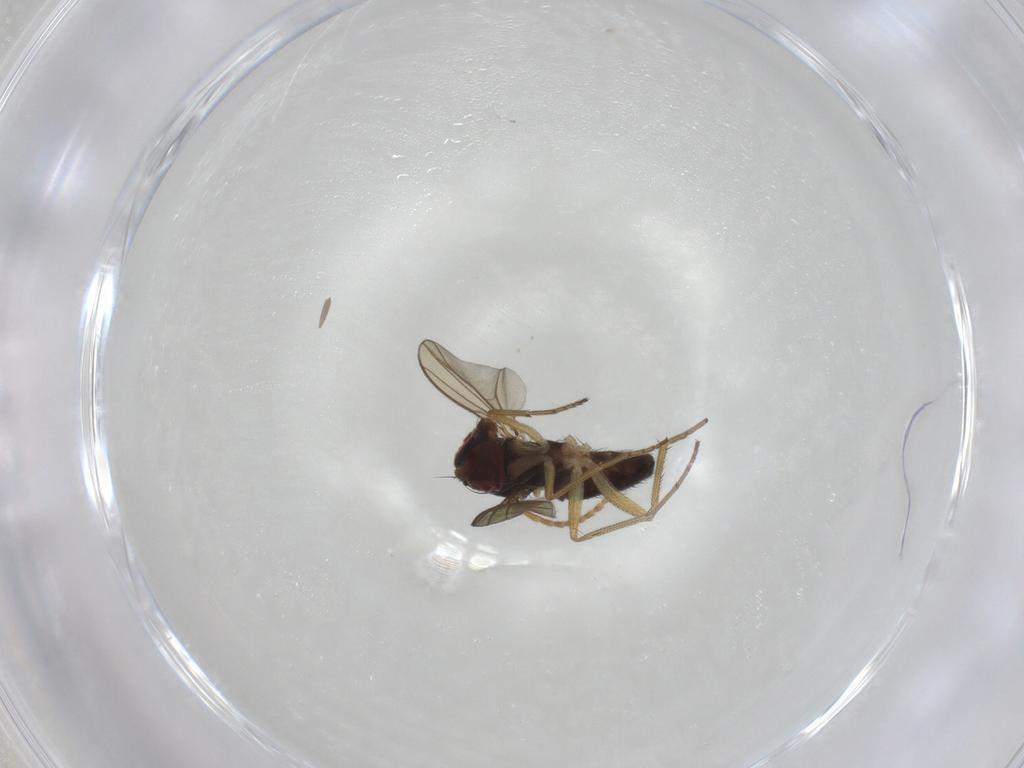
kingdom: Animalia
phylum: Arthropoda
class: Insecta
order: Diptera
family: Dolichopodidae
